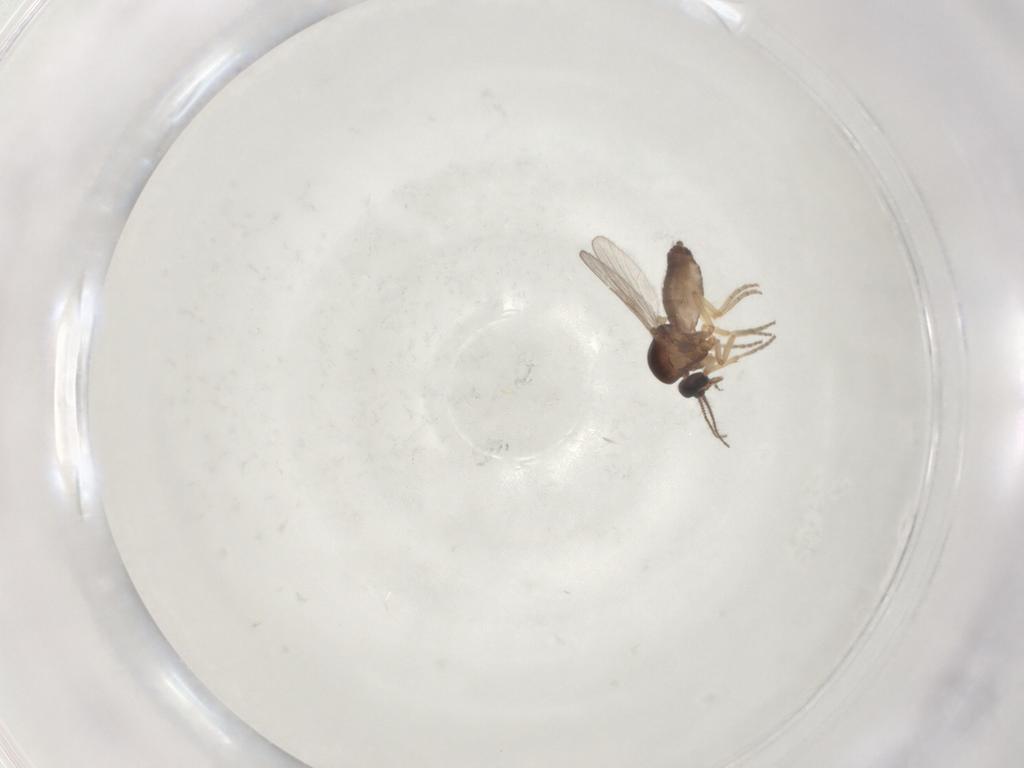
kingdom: Animalia
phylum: Arthropoda
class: Insecta
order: Diptera
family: Ceratopogonidae
